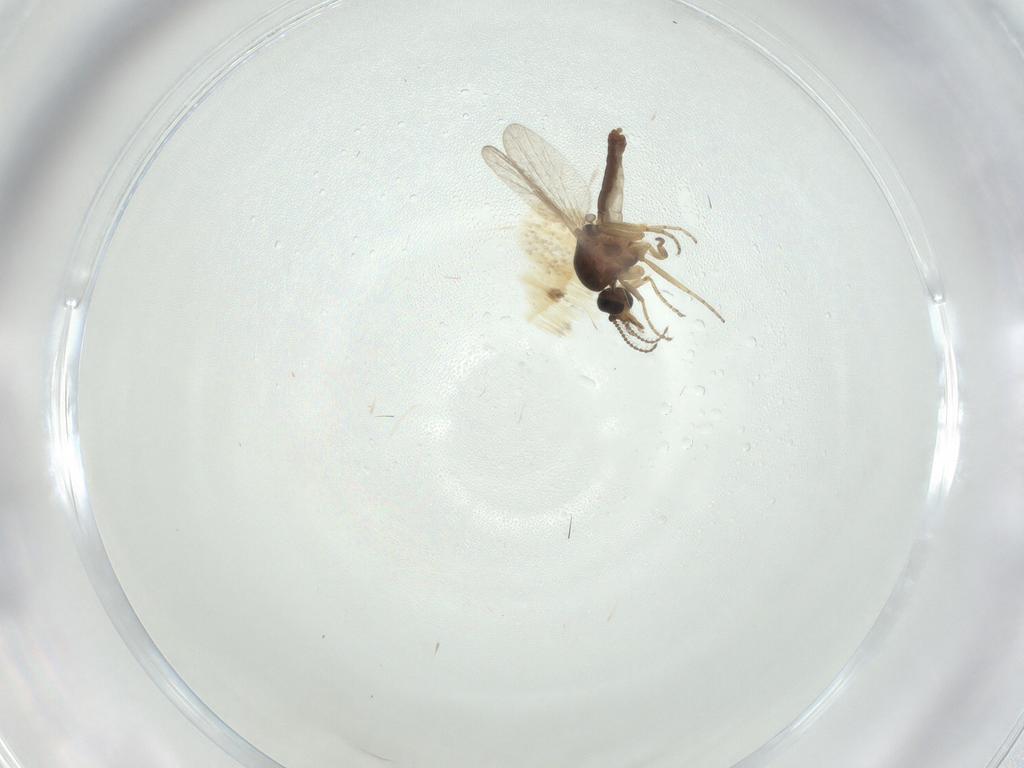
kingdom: Animalia
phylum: Arthropoda
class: Insecta
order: Diptera
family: Ceratopogonidae
